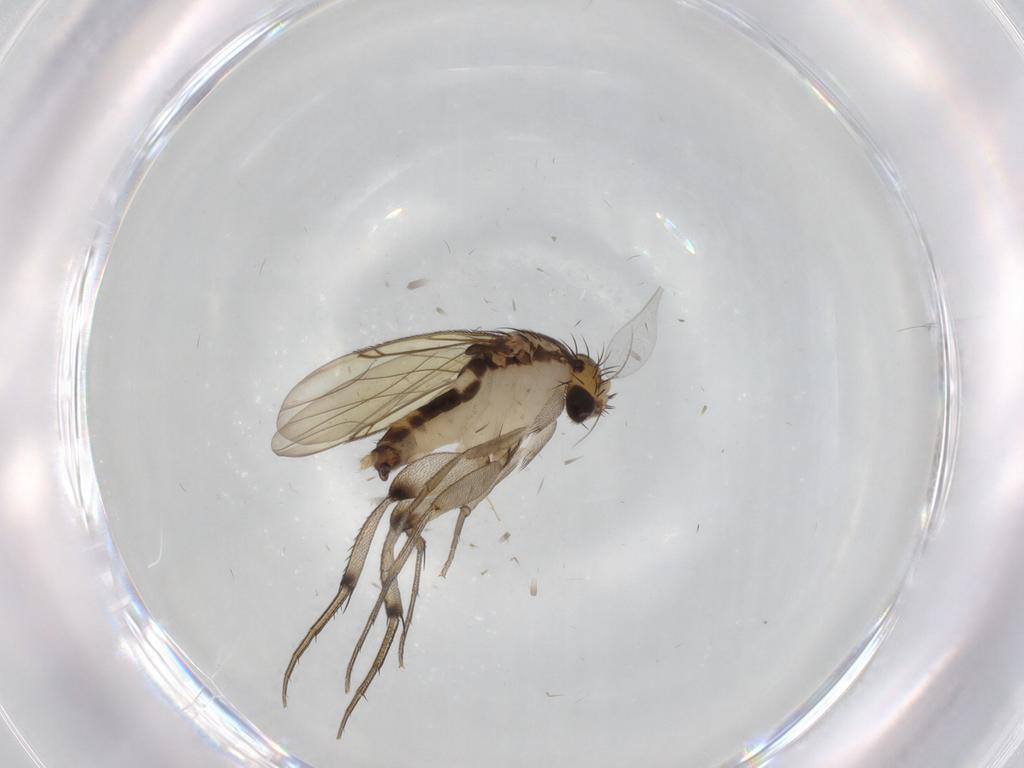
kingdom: Animalia
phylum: Arthropoda
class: Insecta
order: Diptera
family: Phoridae
